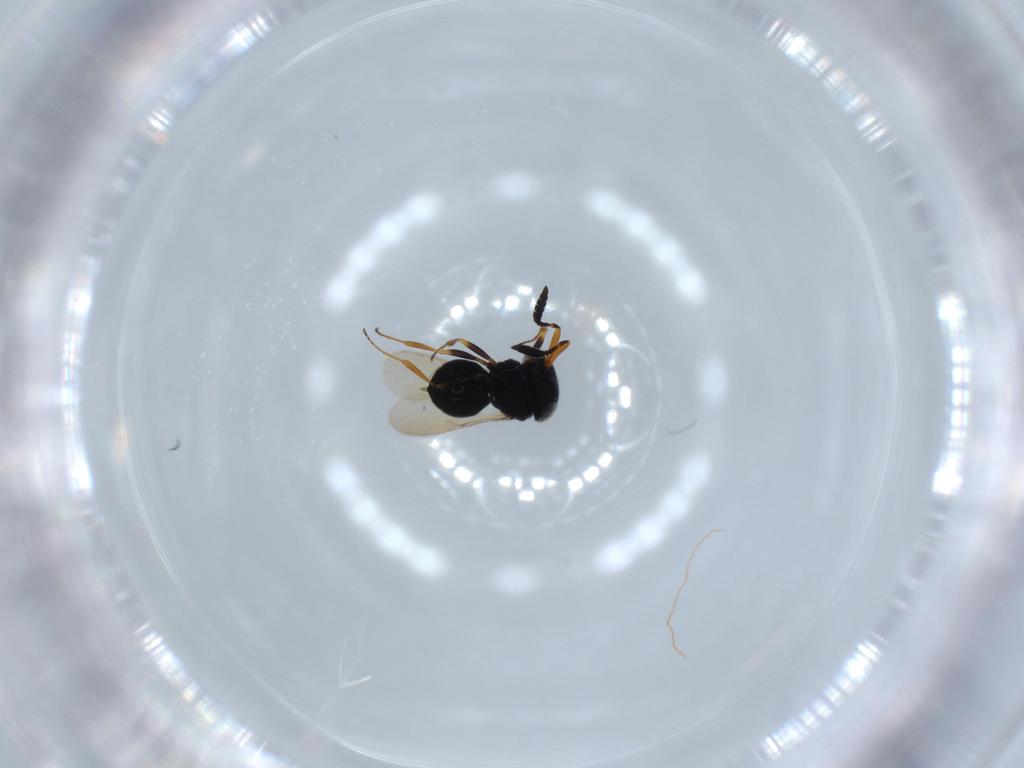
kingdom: Animalia
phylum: Arthropoda
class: Insecta
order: Hymenoptera
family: Scelionidae
